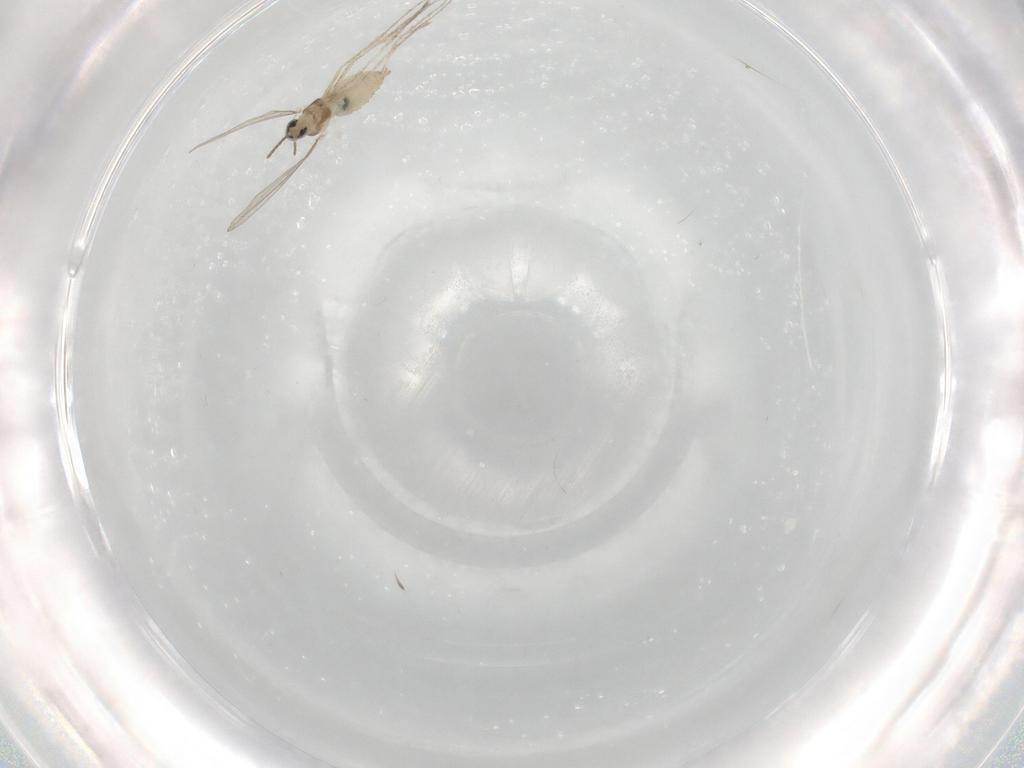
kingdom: Animalia
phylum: Arthropoda
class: Insecta
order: Diptera
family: Cecidomyiidae
